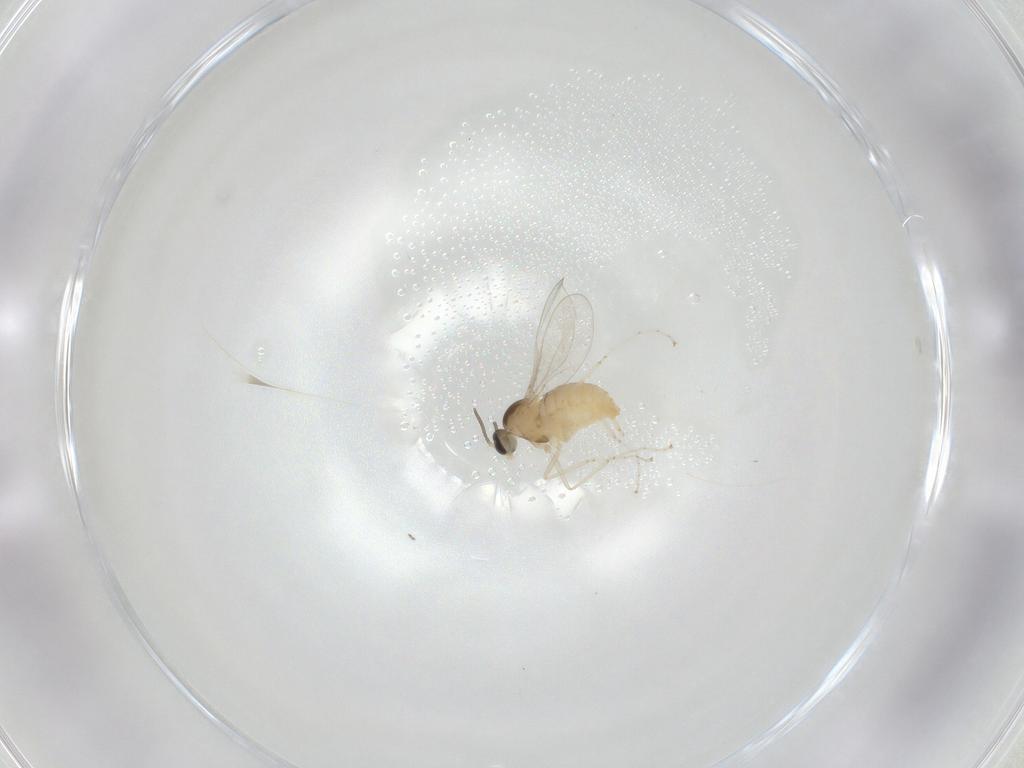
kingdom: Animalia
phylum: Arthropoda
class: Insecta
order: Diptera
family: Cecidomyiidae
